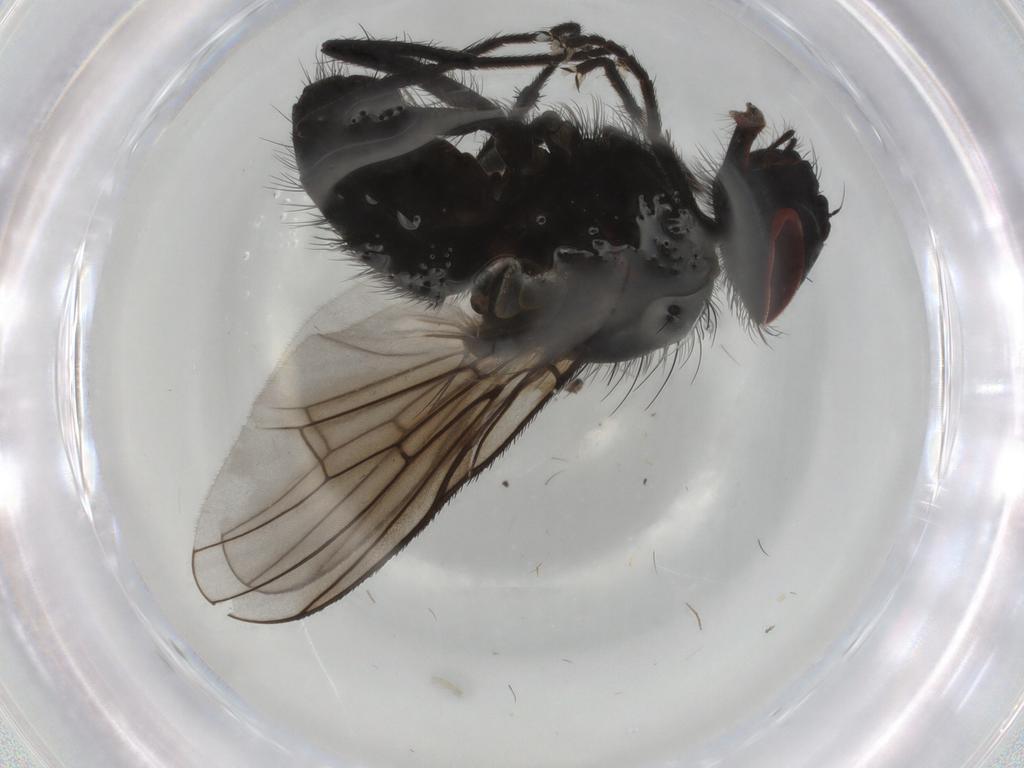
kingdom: Animalia
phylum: Arthropoda
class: Insecta
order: Diptera
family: Muscidae
